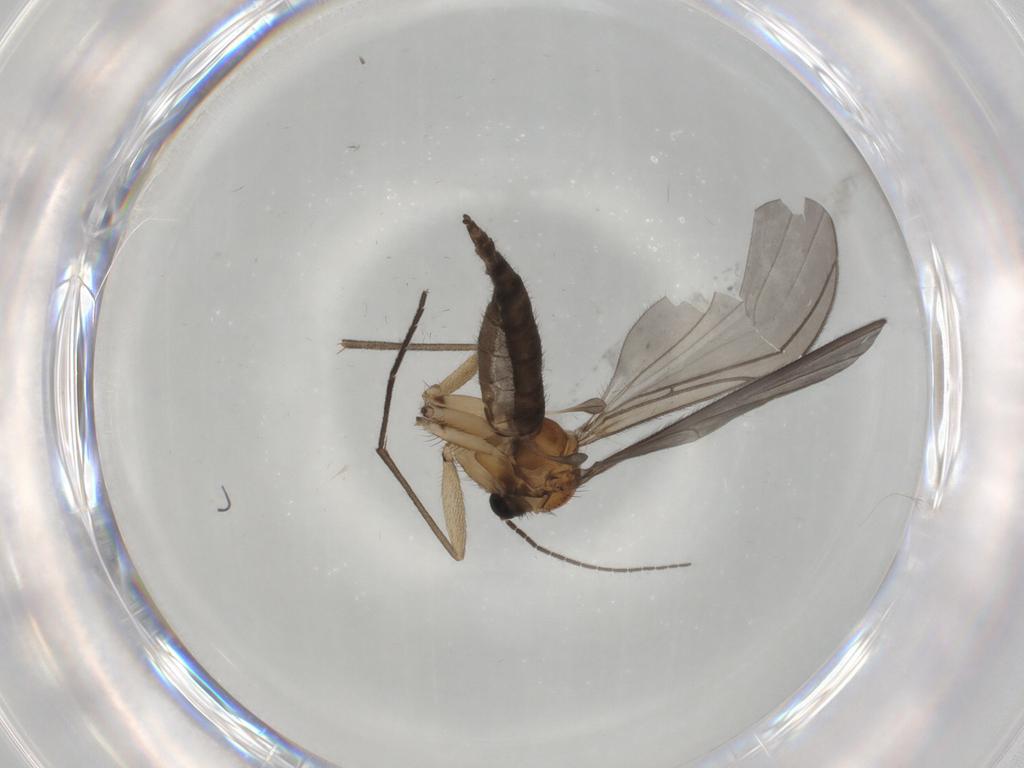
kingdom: Animalia
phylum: Arthropoda
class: Insecta
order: Diptera
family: Sciaridae
